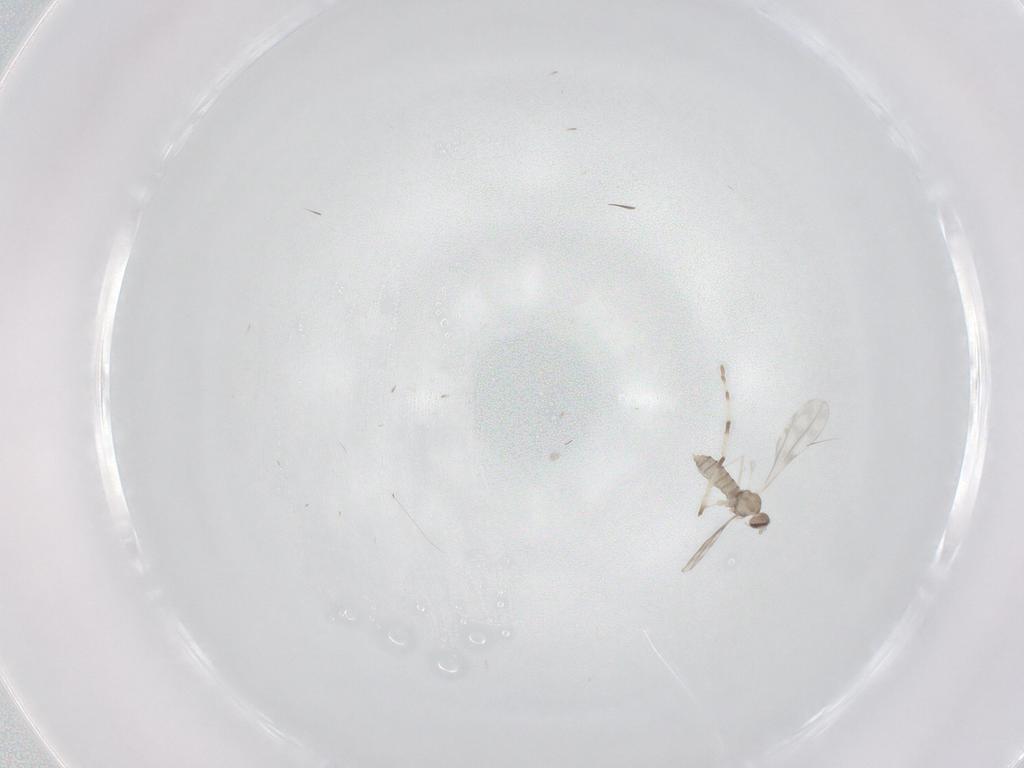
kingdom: Animalia
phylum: Arthropoda
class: Insecta
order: Diptera
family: Cecidomyiidae
